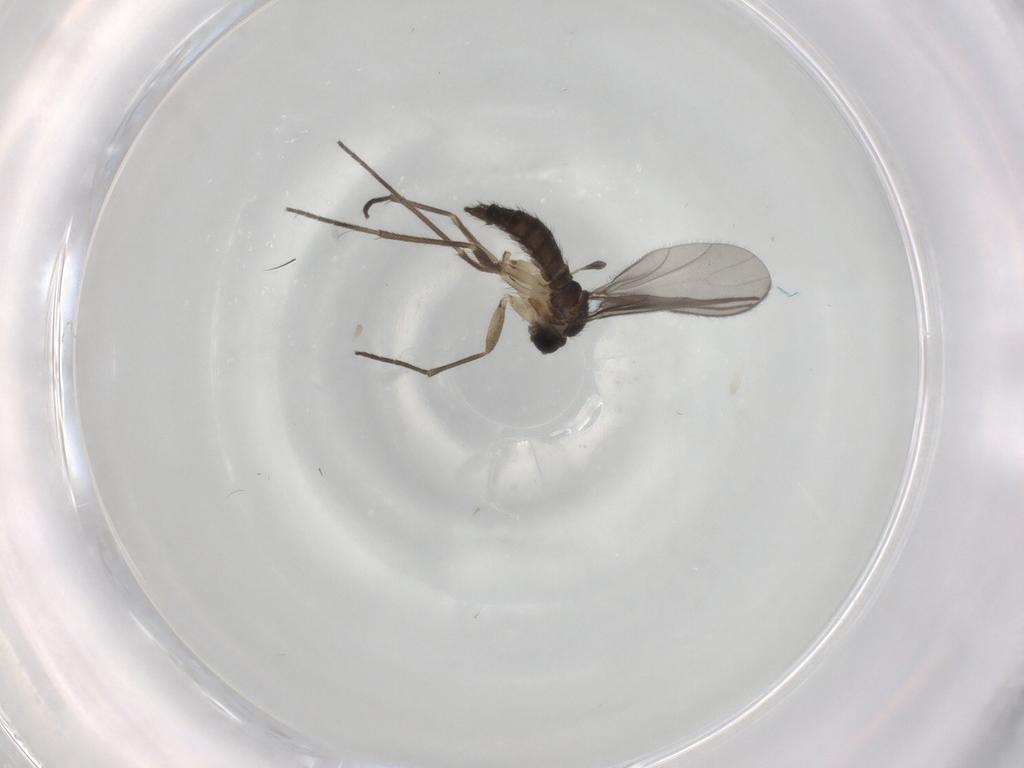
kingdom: Animalia
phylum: Arthropoda
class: Insecta
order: Diptera
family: Sciaridae
